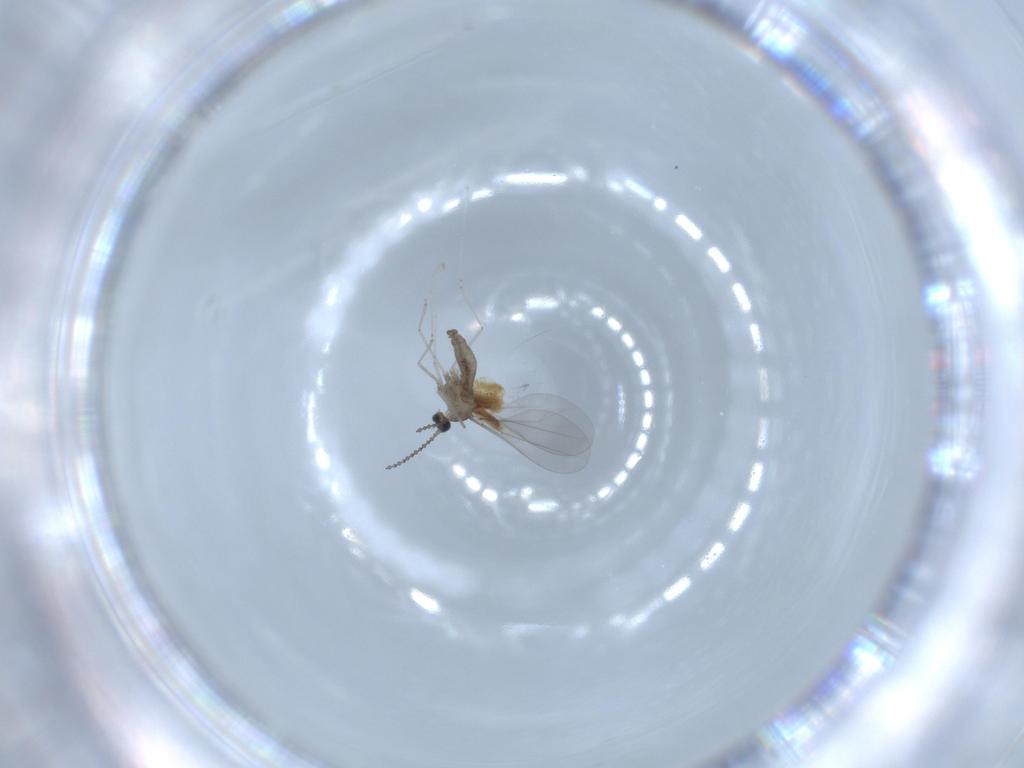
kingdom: Animalia
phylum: Arthropoda
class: Insecta
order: Diptera
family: Cecidomyiidae
